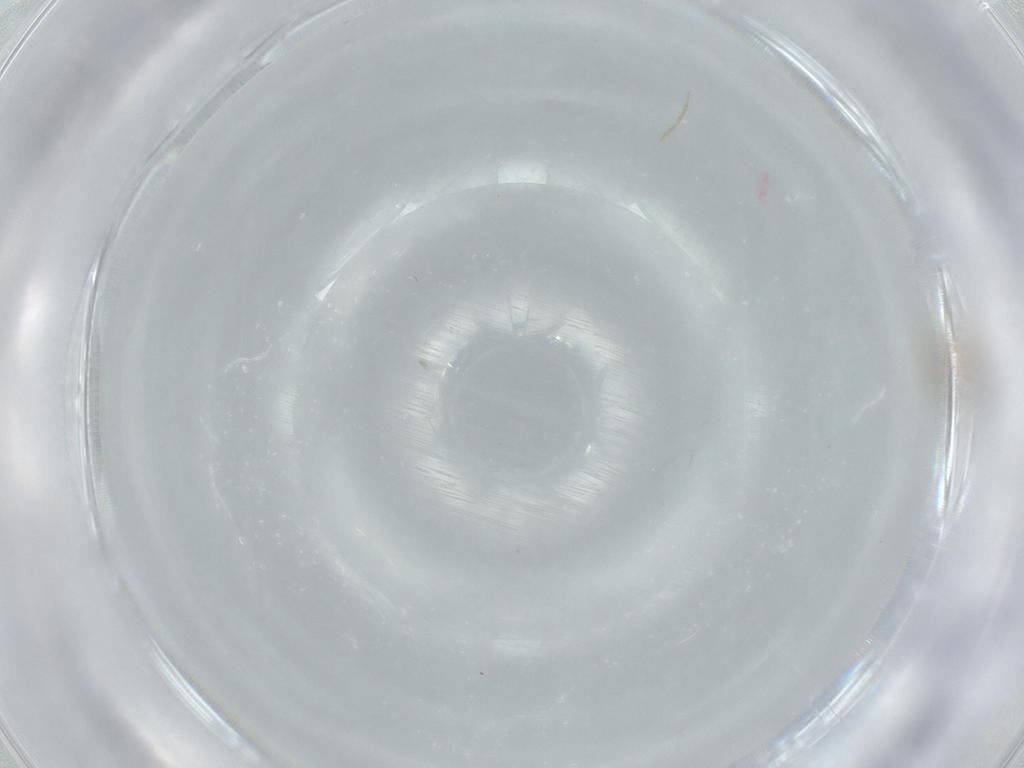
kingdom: Animalia
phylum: Arthropoda
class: Insecta
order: Diptera
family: Phoridae
